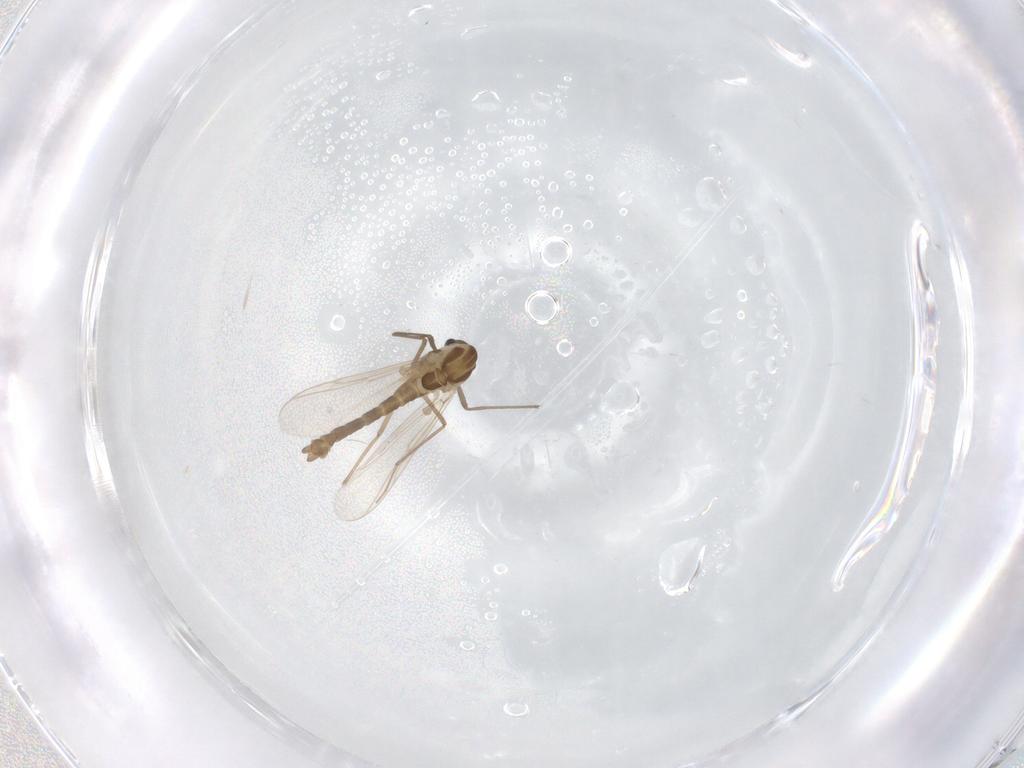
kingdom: Animalia
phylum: Arthropoda
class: Insecta
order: Diptera
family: Chironomidae
